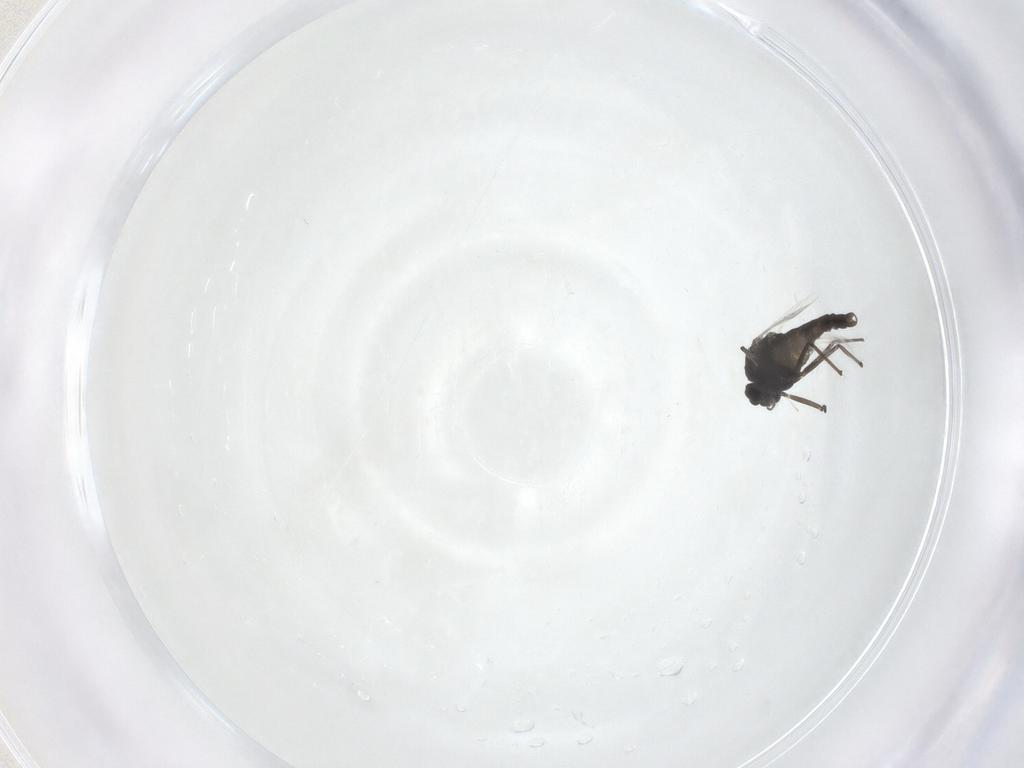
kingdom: Animalia
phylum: Arthropoda
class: Insecta
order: Diptera
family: Chironomidae
